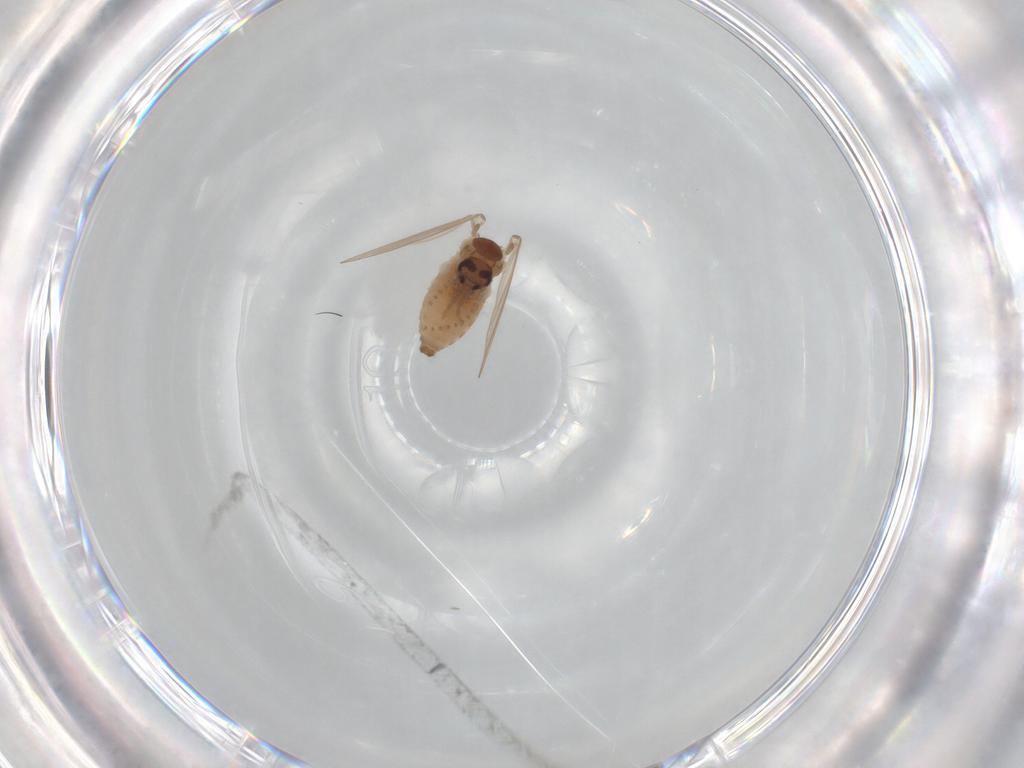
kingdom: Animalia
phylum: Arthropoda
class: Insecta
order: Diptera
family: Psychodidae
